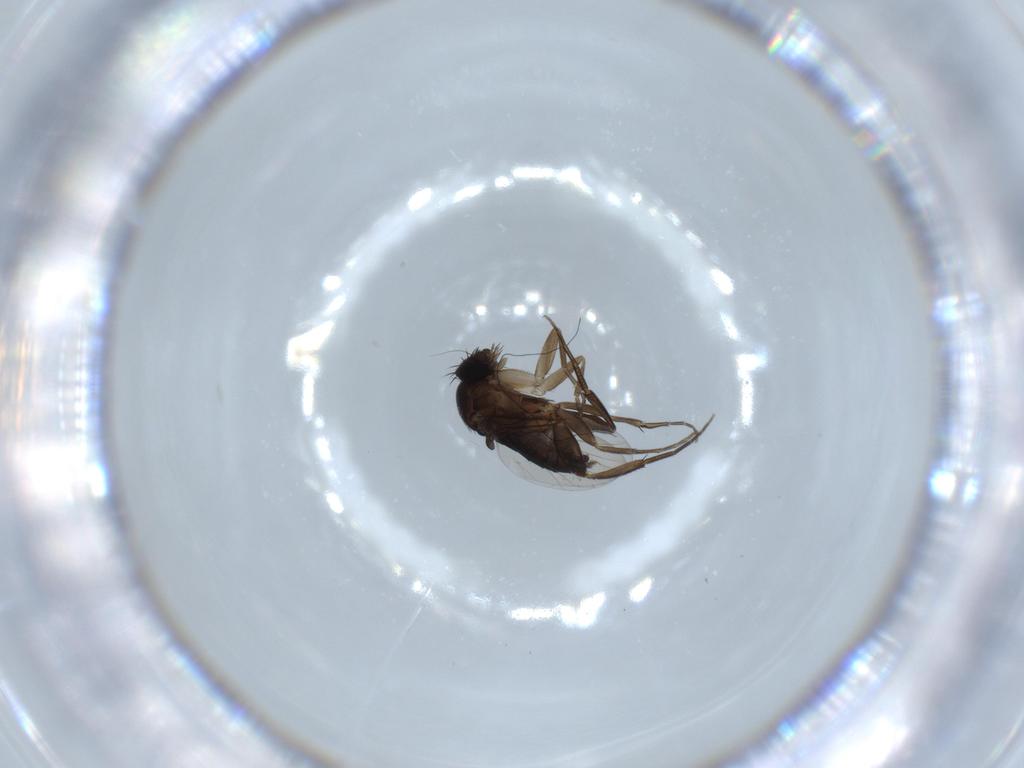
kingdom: Animalia
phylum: Arthropoda
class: Insecta
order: Diptera
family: Phoridae
